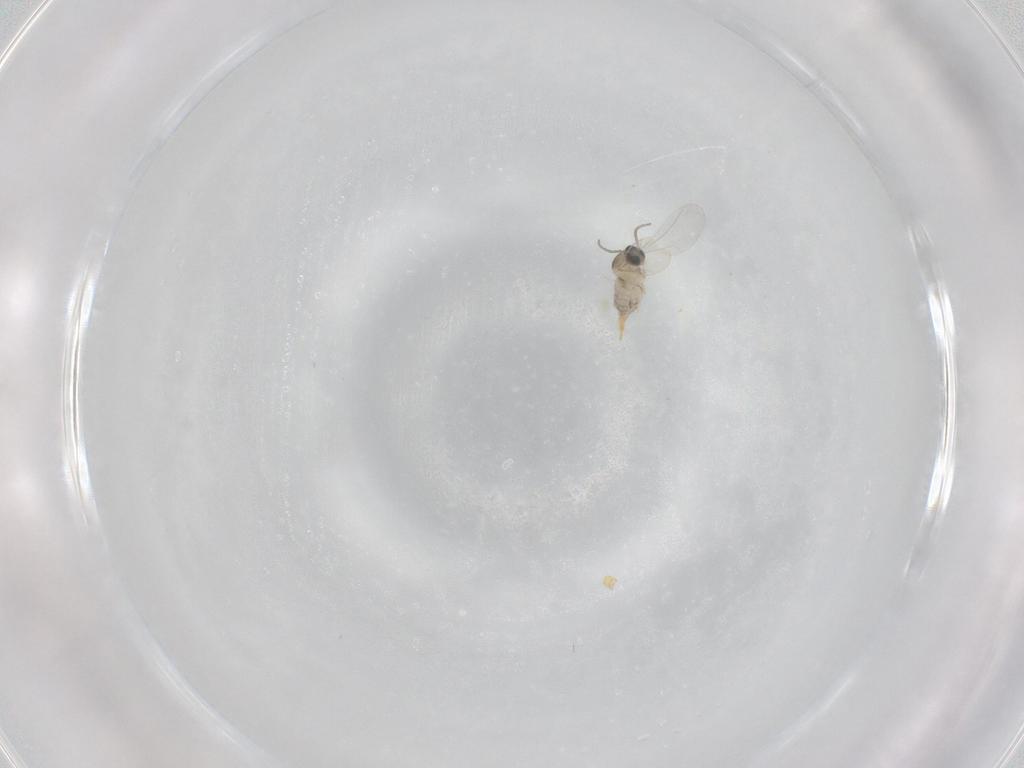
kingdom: Animalia
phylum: Arthropoda
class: Insecta
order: Diptera
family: Cecidomyiidae
